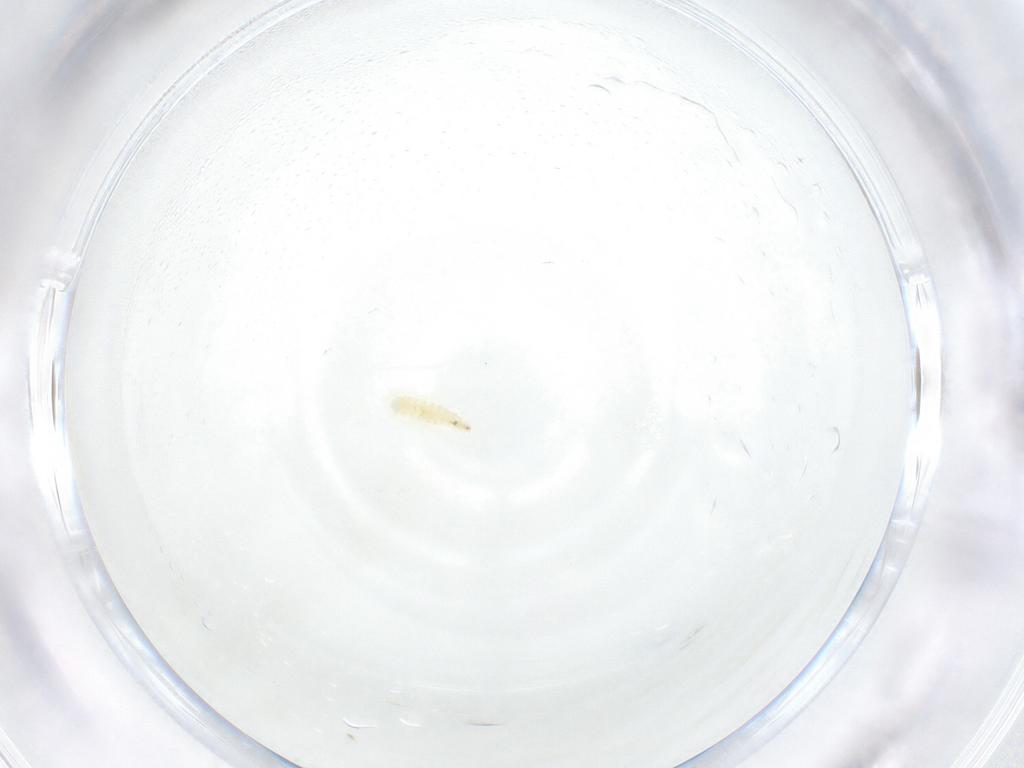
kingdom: Animalia
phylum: Arthropoda
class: Insecta
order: Diptera
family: Sarcophagidae
